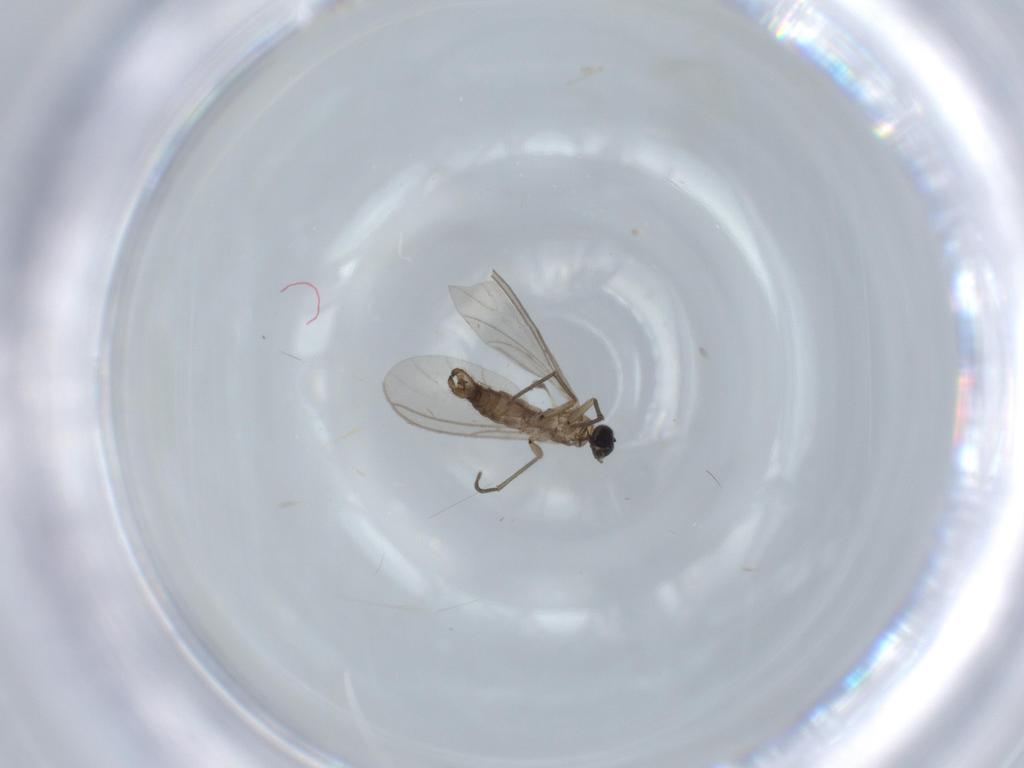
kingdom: Animalia
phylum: Arthropoda
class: Insecta
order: Diptera
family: Sciaridae
